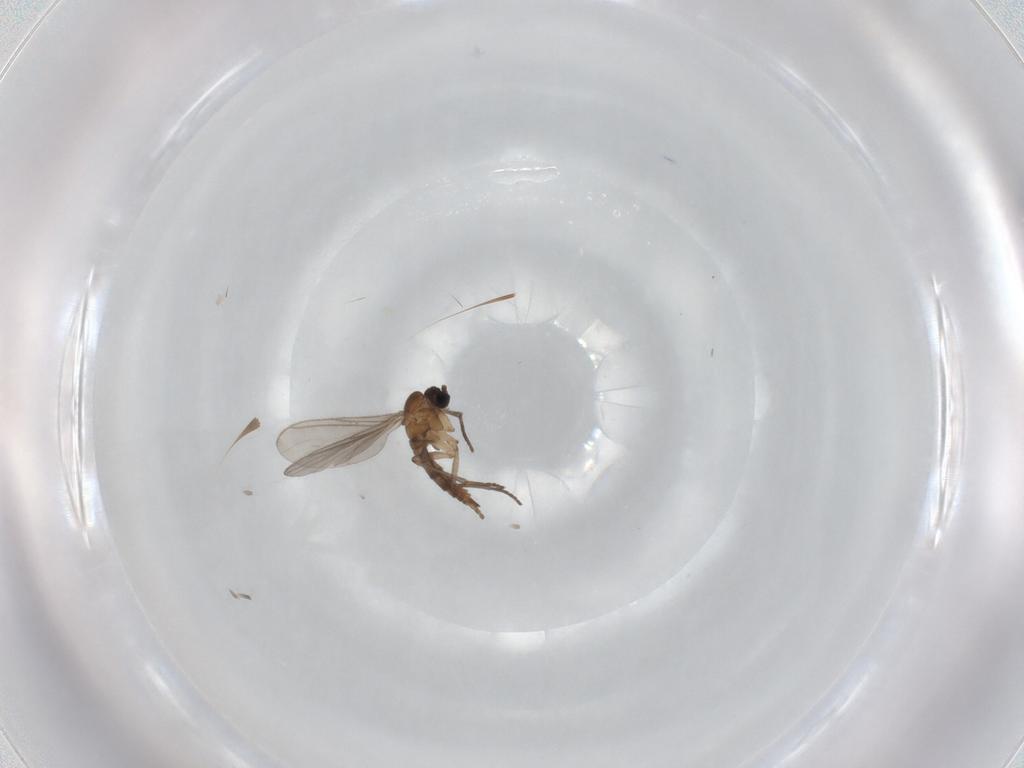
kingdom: Animalia
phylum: Arthropoda
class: Insecta
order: Diptera
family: Sciaridae
